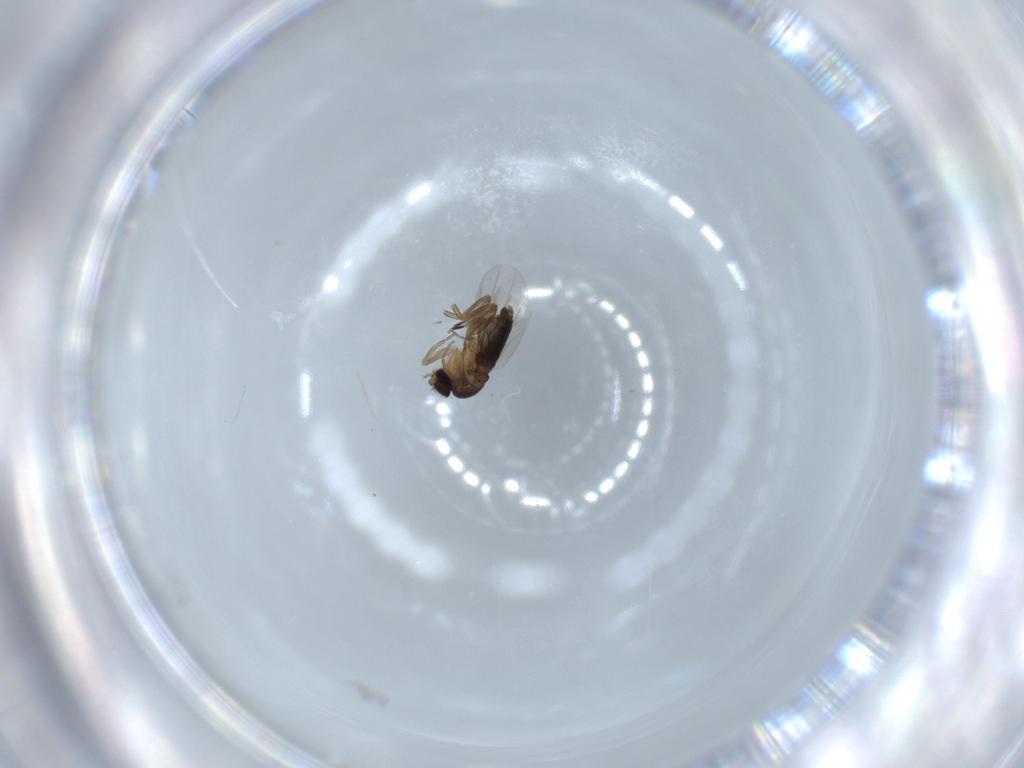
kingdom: Animalia
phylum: Arthropoda
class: Insecta
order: Diptera
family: Phoridae
